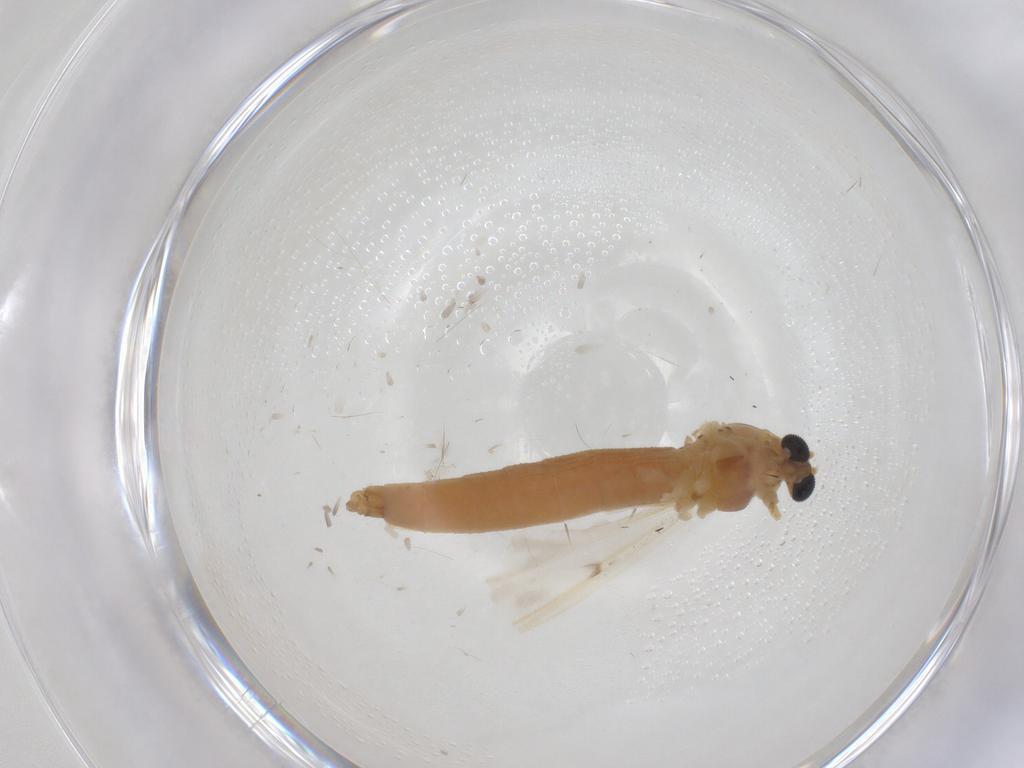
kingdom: Animalia
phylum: Arthropoda
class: Insecta
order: Diptera
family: Chironomidae
